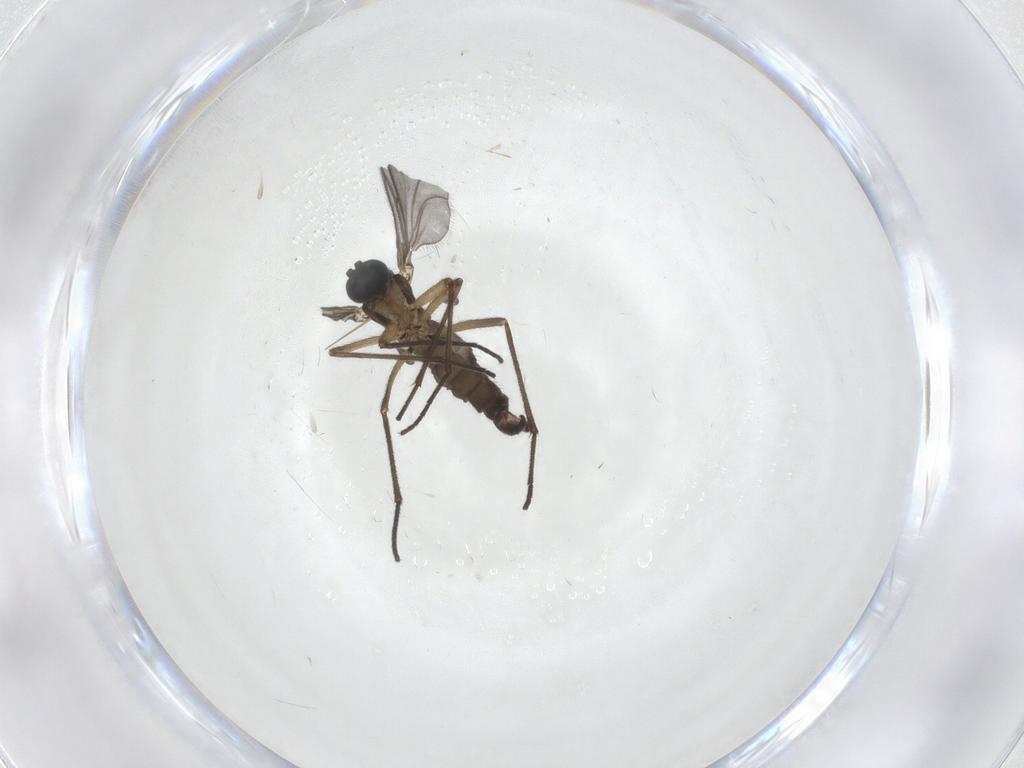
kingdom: Animalia
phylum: Arthropoda
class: Insecta
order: Diptera
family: Sciaridae
